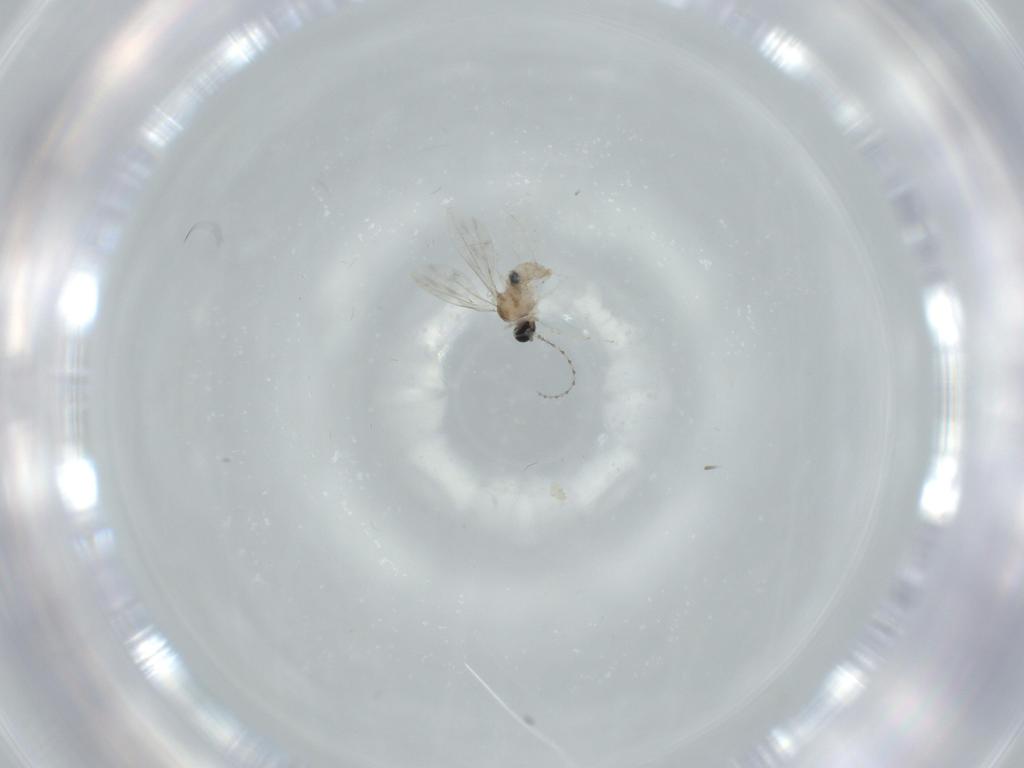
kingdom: Animalia
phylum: Arthropoda
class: Insecta
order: Diptera
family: Cecidomyiidae
